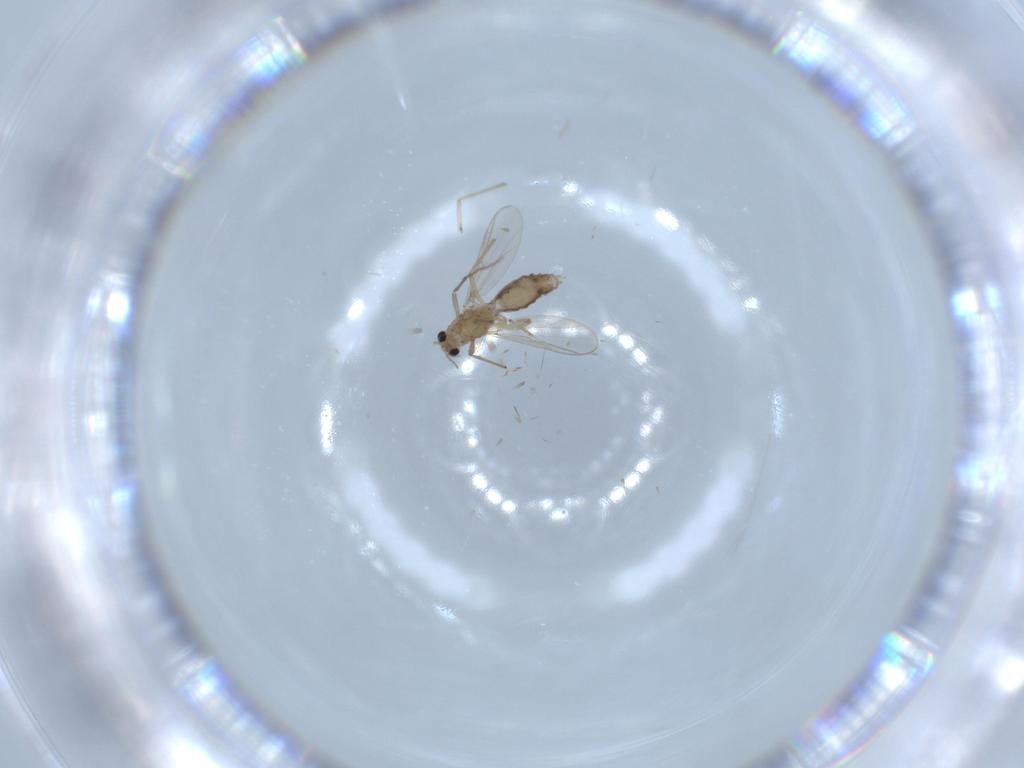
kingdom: Animalia
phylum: Arthropoda
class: Insecta
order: Diptera
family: Chironomidae
